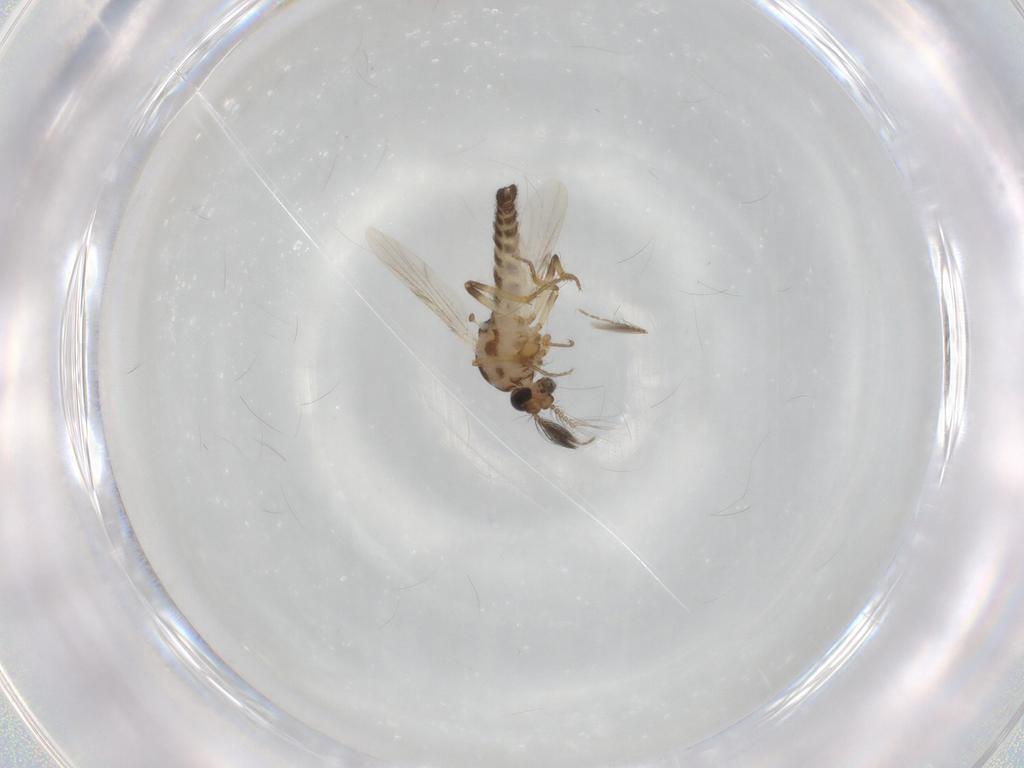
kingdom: Animalia
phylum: Arthropoda
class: Insecta
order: Diptera
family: Ceratopogonidae
